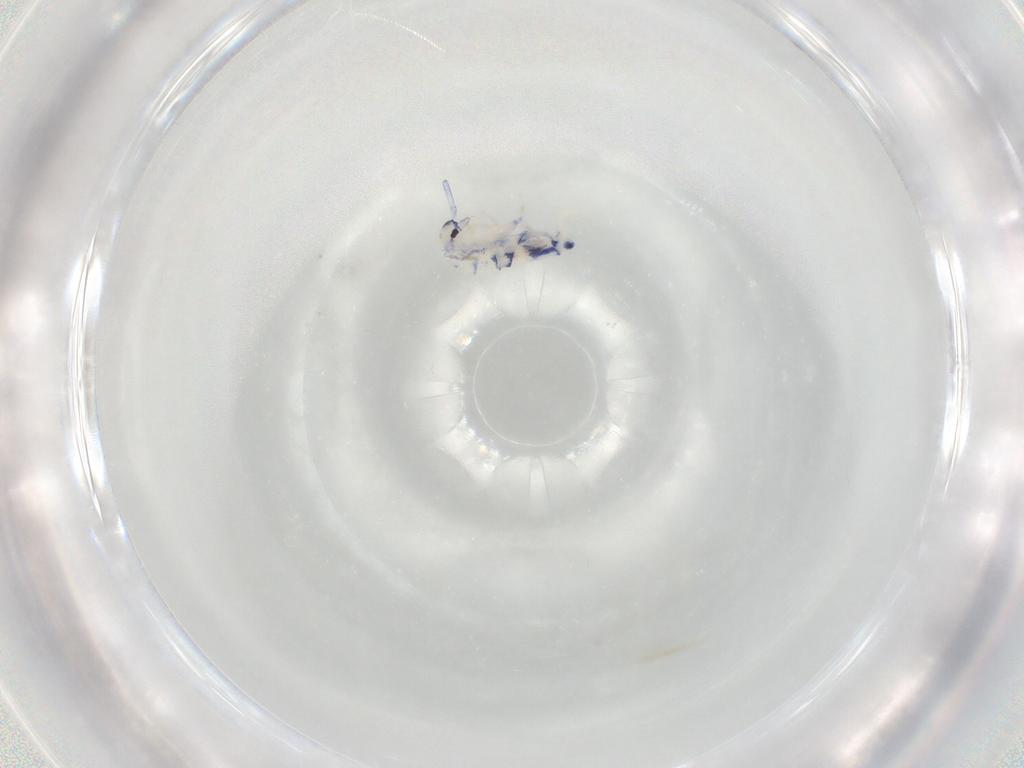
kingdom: Animalia
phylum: Arthropoda
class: Collembola
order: Entomobryomorpha
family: Entomobryidae
